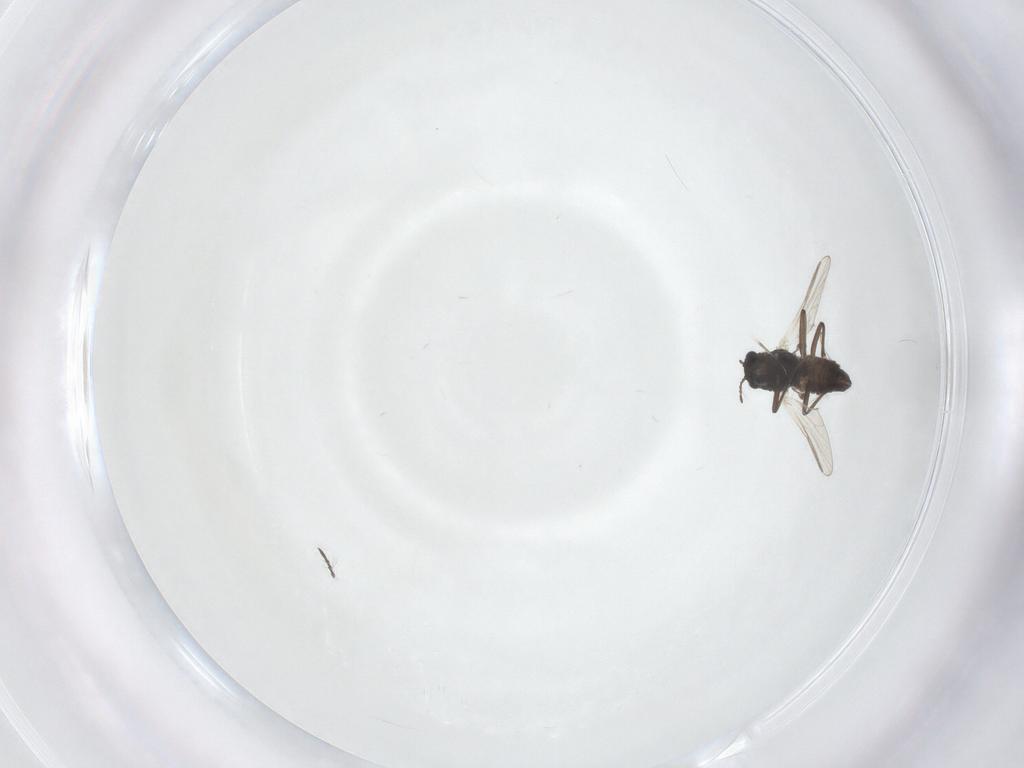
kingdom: Animalia
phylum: Arthropoda
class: Insecta
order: Diptera
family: Chironomidae
